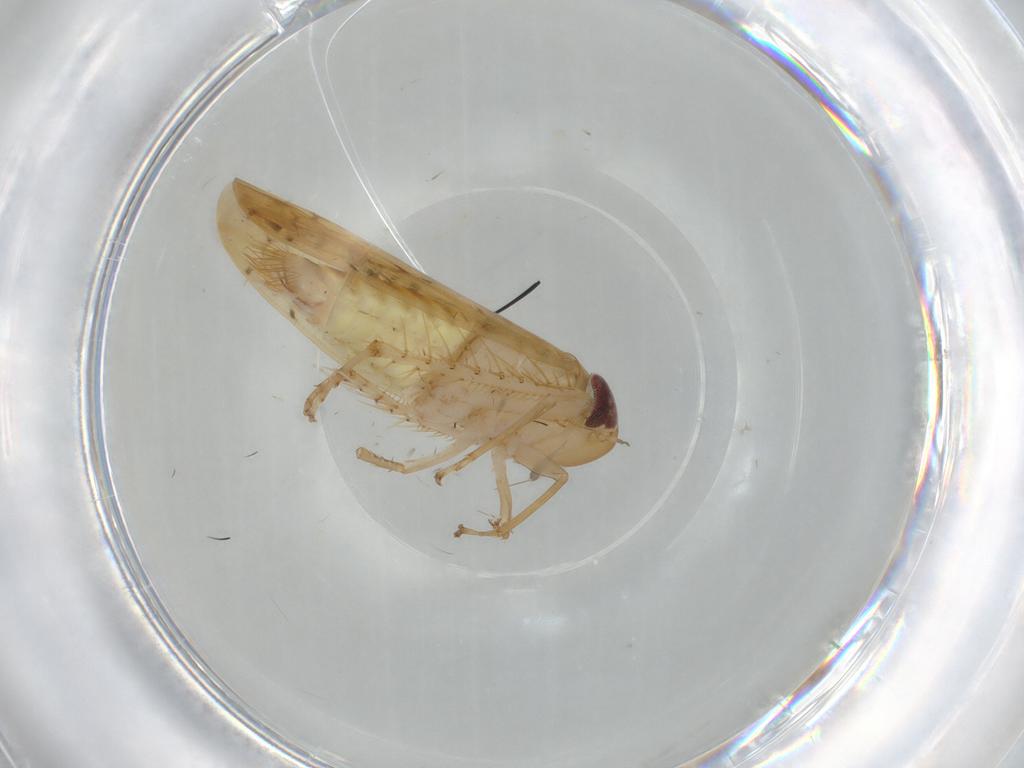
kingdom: Animalia
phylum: Arthropoda
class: Insecta
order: Hemiptera
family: Cicadellidae
